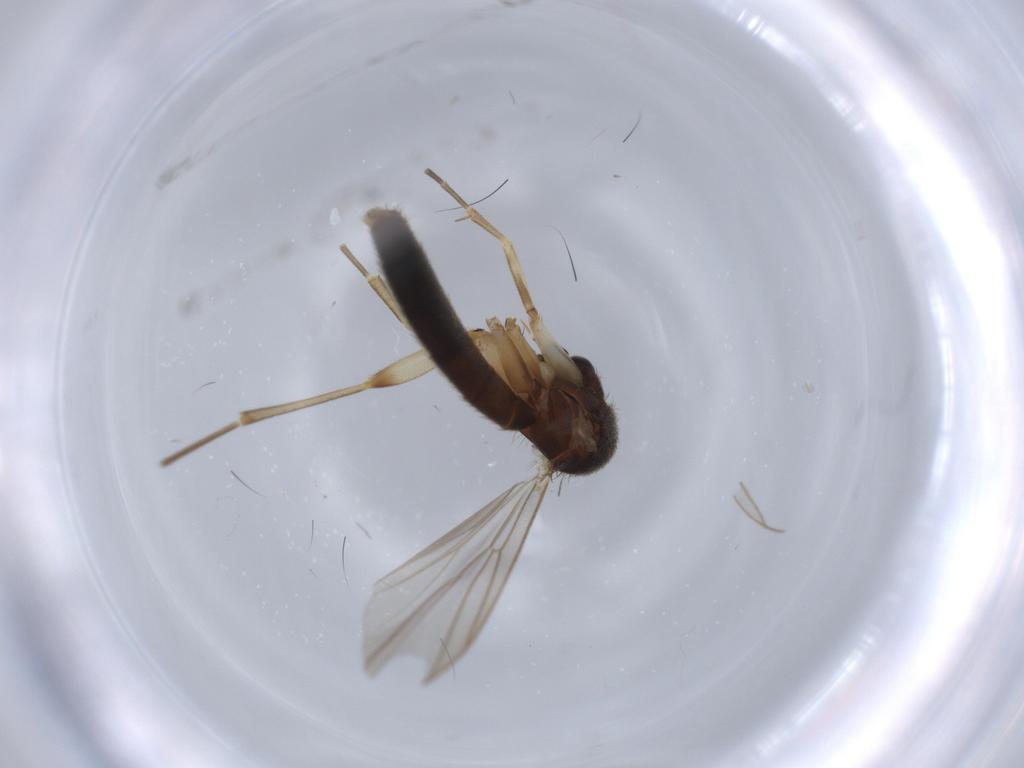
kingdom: Animalia
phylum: Arthropoda
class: Insecta
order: Diptera
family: Mycetophilidae
